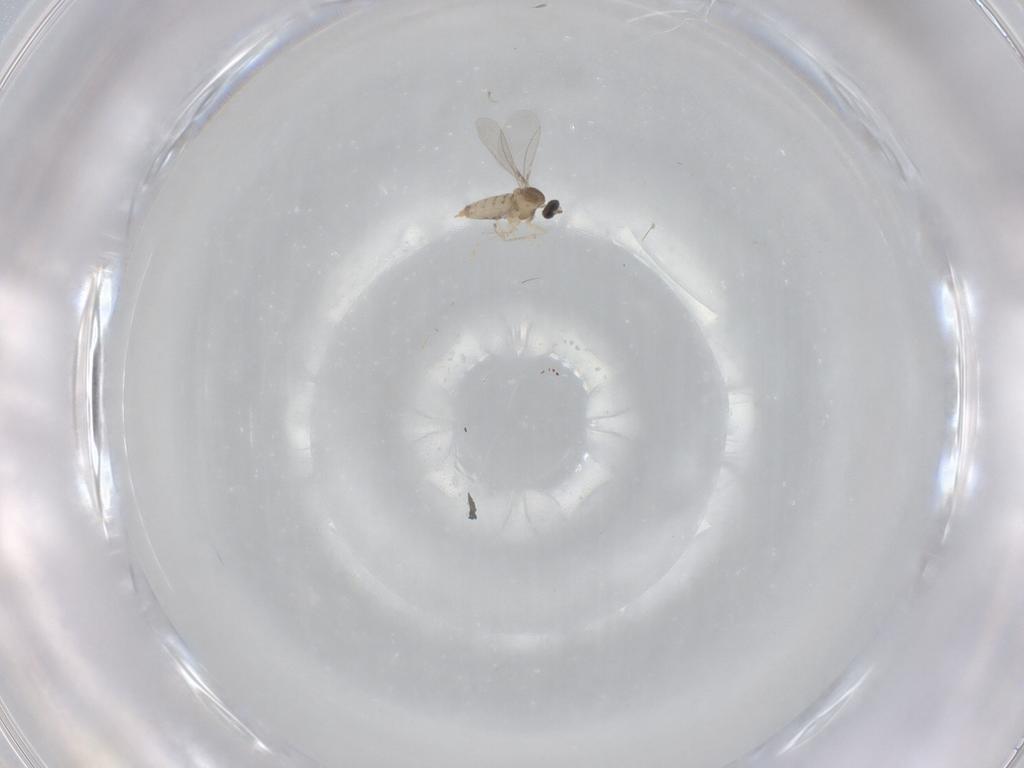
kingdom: Animalia
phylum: Arthropoda
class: Insecta
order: Diptera
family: Cecidomyiidae
